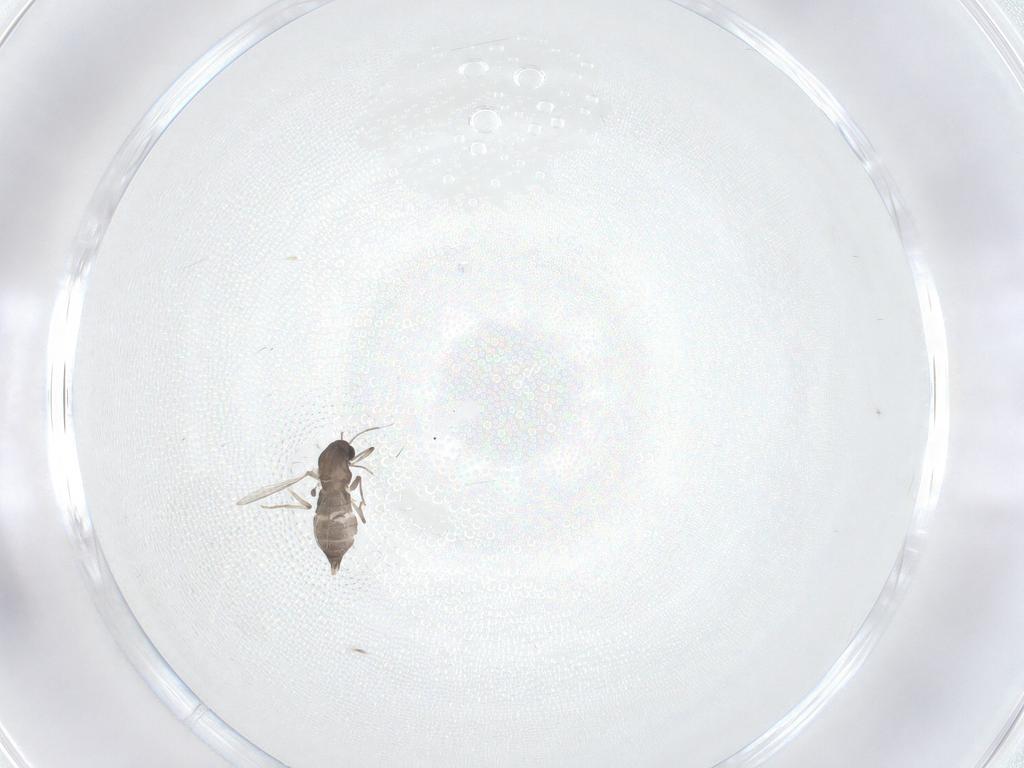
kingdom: Animalia
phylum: Arthropoda
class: Insecta
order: Diptera
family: Chironomidae
